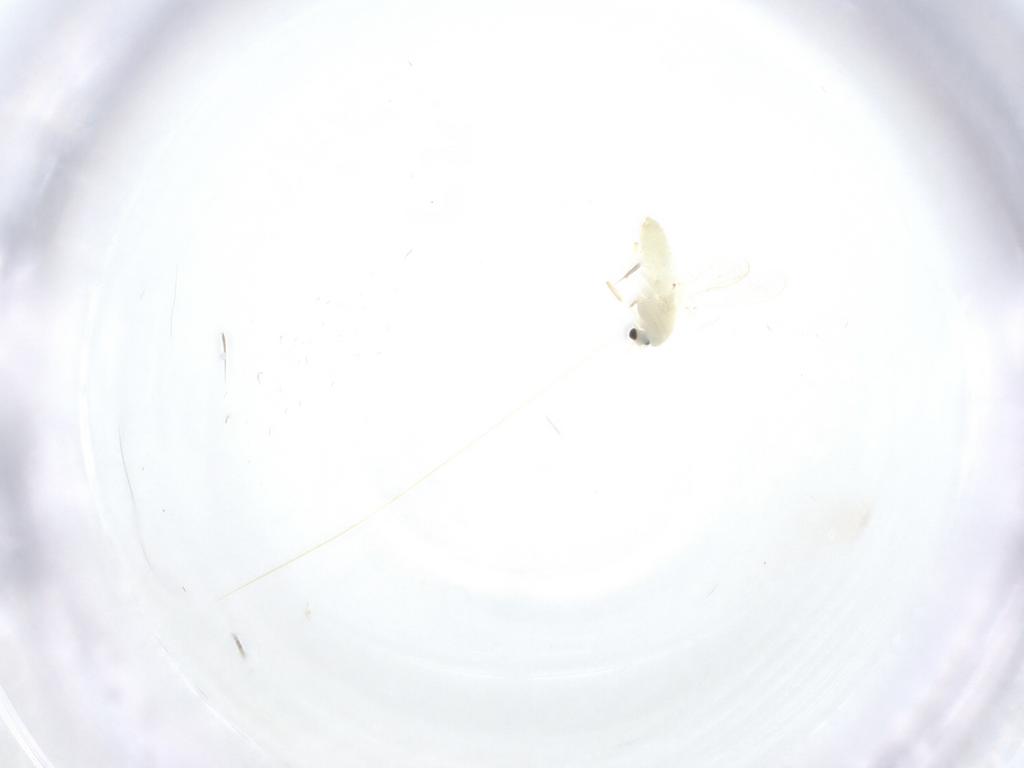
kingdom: Animalia
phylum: Arthropoda
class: Insecta
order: Diptera
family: Chironomidae
